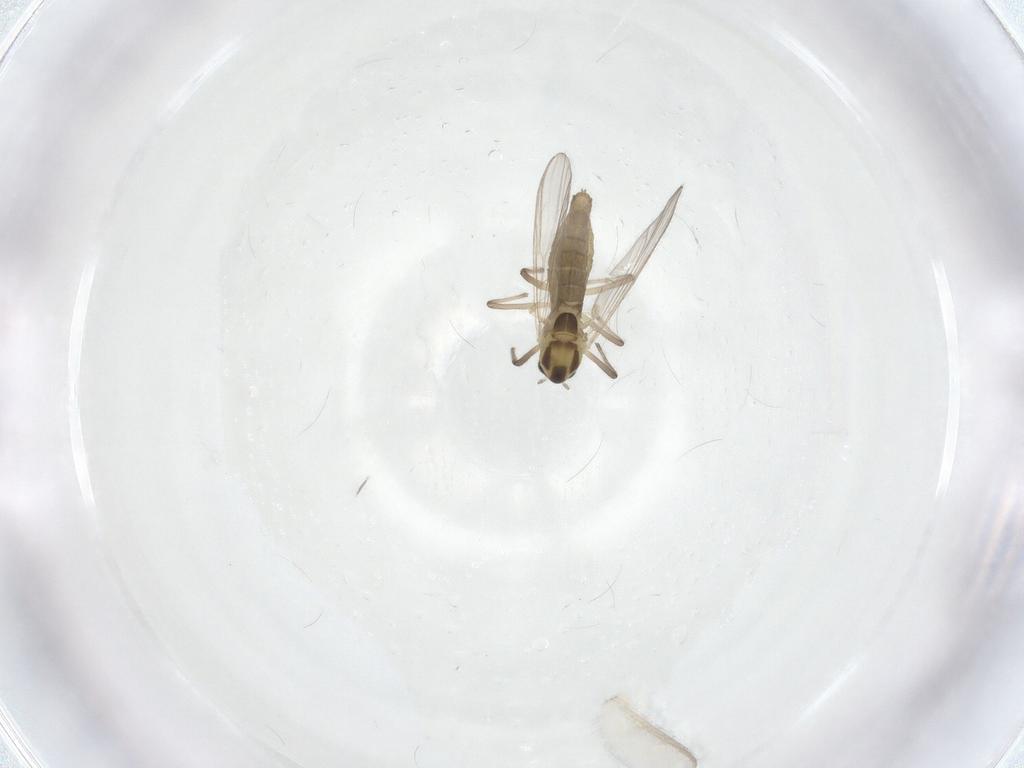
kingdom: Animalia
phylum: Arthropoda
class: Insecta
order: Diptera
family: Chironomidae
